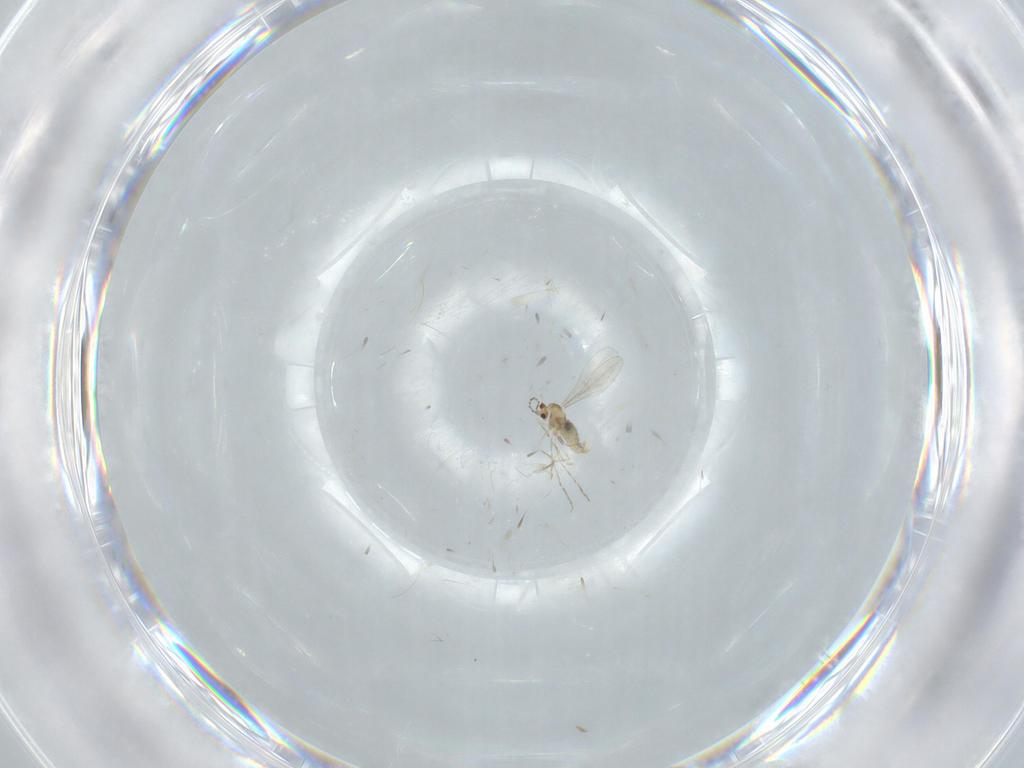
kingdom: Animalia
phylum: Arthropoda
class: Insecta
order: Diptera
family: Cecidomyiidae
